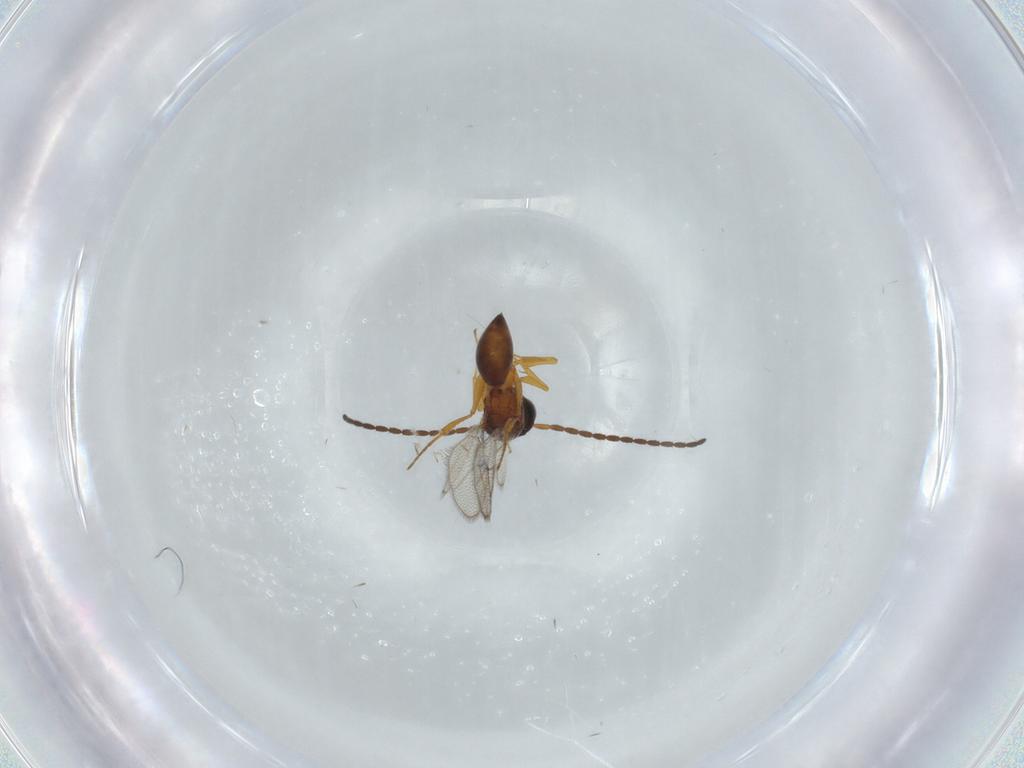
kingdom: Animalia
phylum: Arthropoda
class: Insecta
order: Hymenoptera
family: Figitidae
